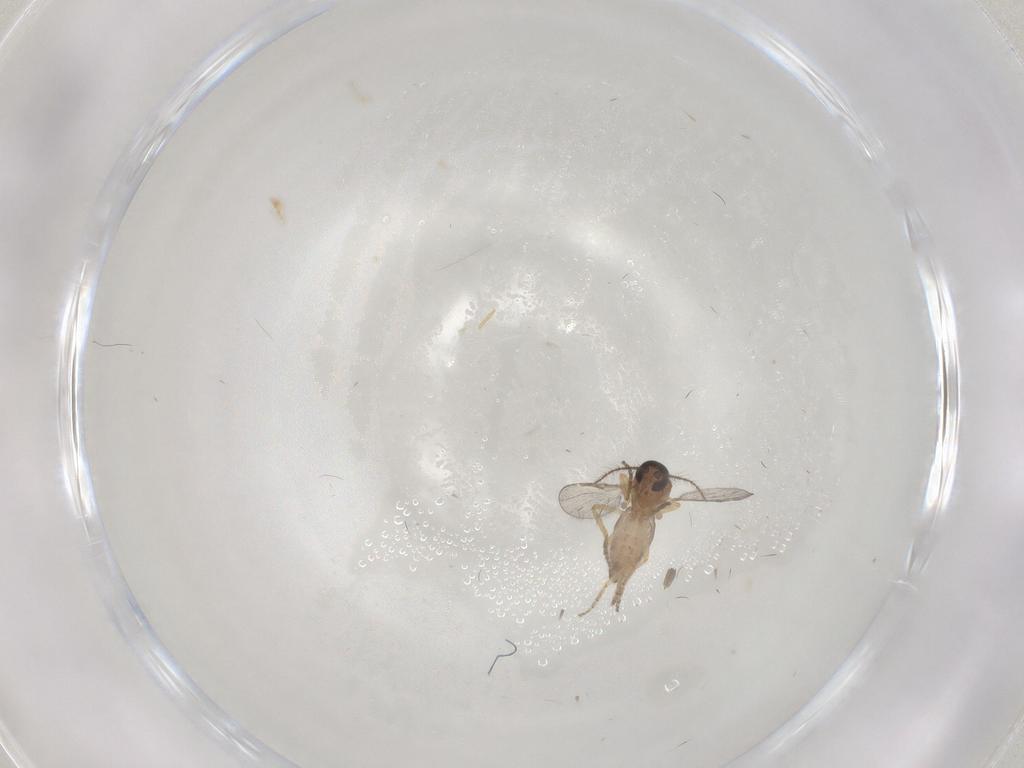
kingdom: Animalia
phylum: Arthropoda
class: Insecta
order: Diptera
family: Ceratopogonidae
